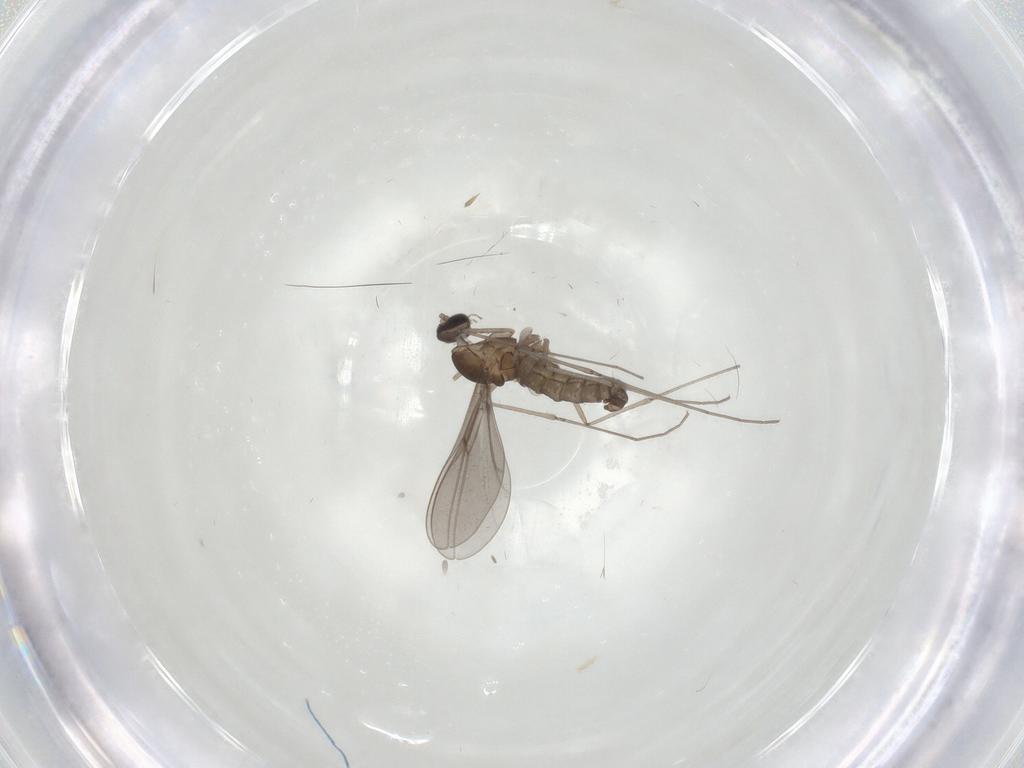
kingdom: Animalia
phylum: Arthropoda
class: Insecta
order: Diptera
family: Cecidomyiidae
